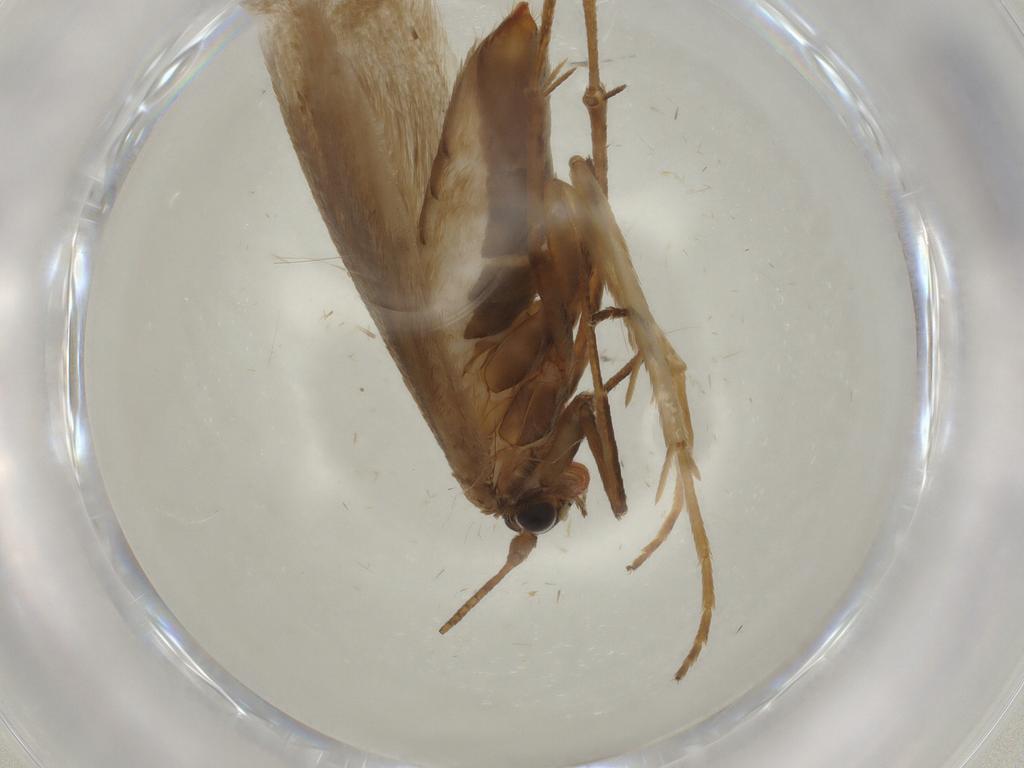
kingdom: Animalia
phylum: Arthropoda
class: Insecta
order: Lepidoptera
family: Adelidae
